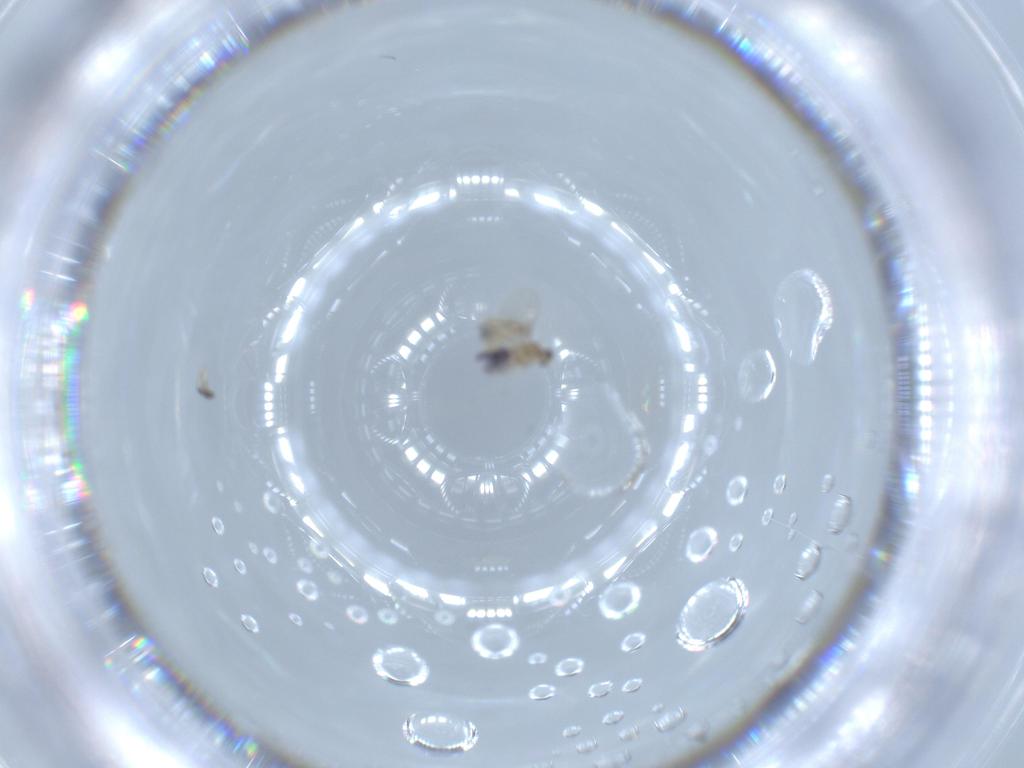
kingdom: Animalia
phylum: Arthropoda
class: Insecta
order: Diptera
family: Cecidomyiidae
